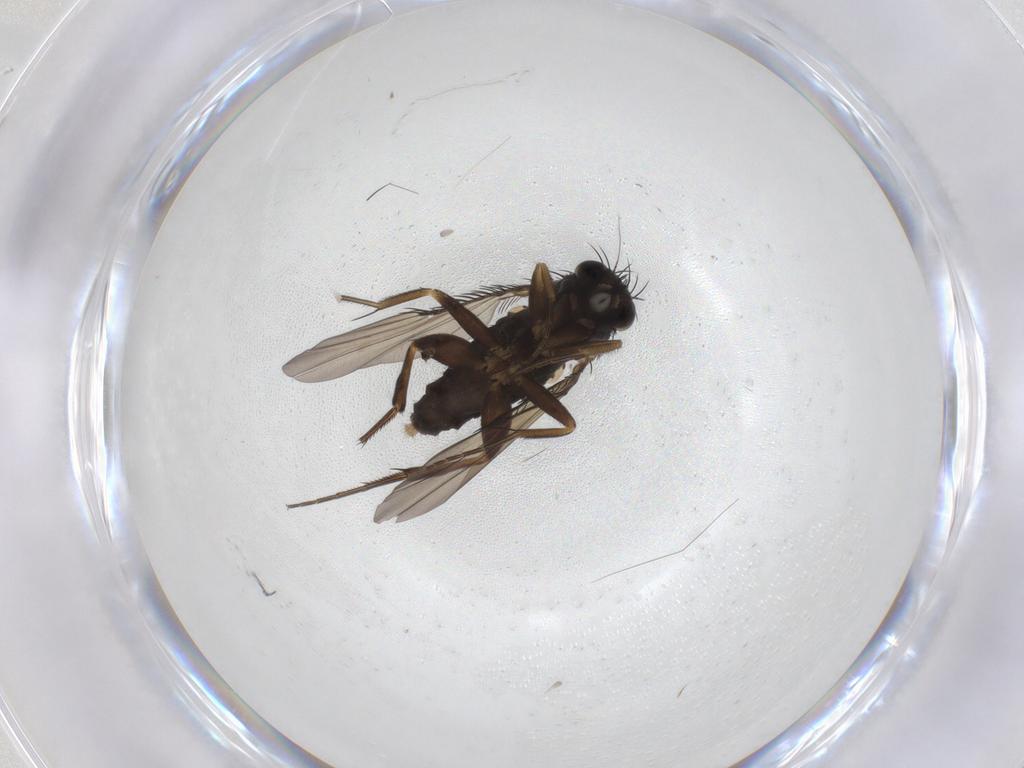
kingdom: Animalia
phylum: Arthropoda
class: Insecta
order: Diptera
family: Phoridae
